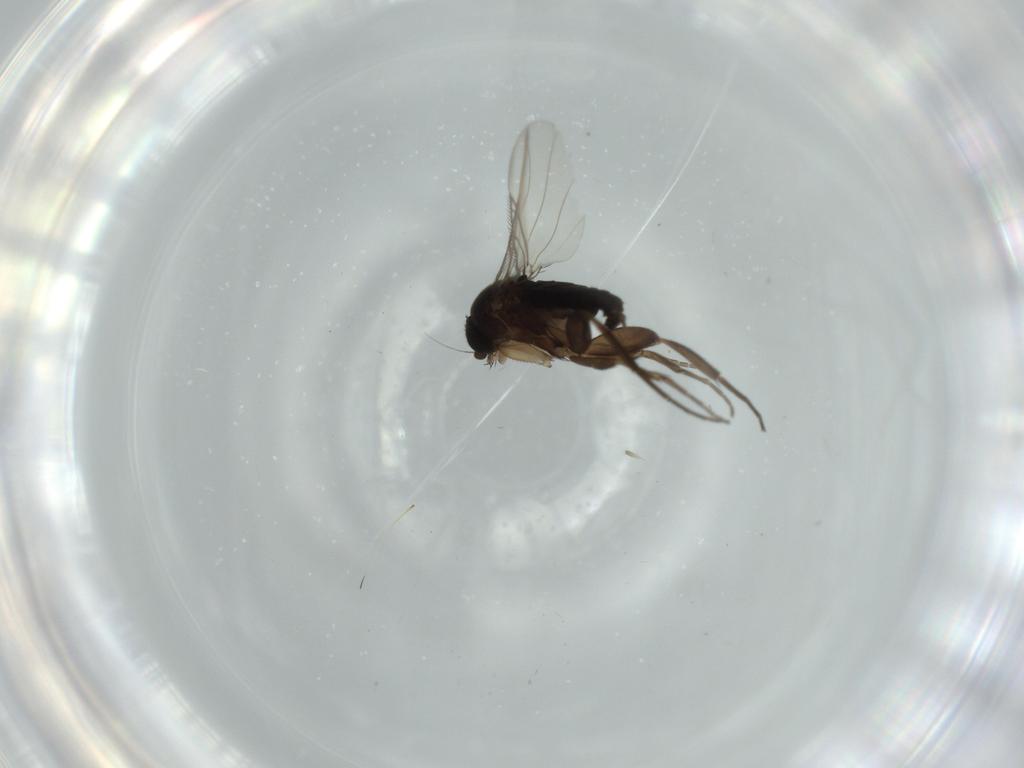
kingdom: Animalia
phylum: Arthropoda
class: Insecta
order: Diptera
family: Phoridae
